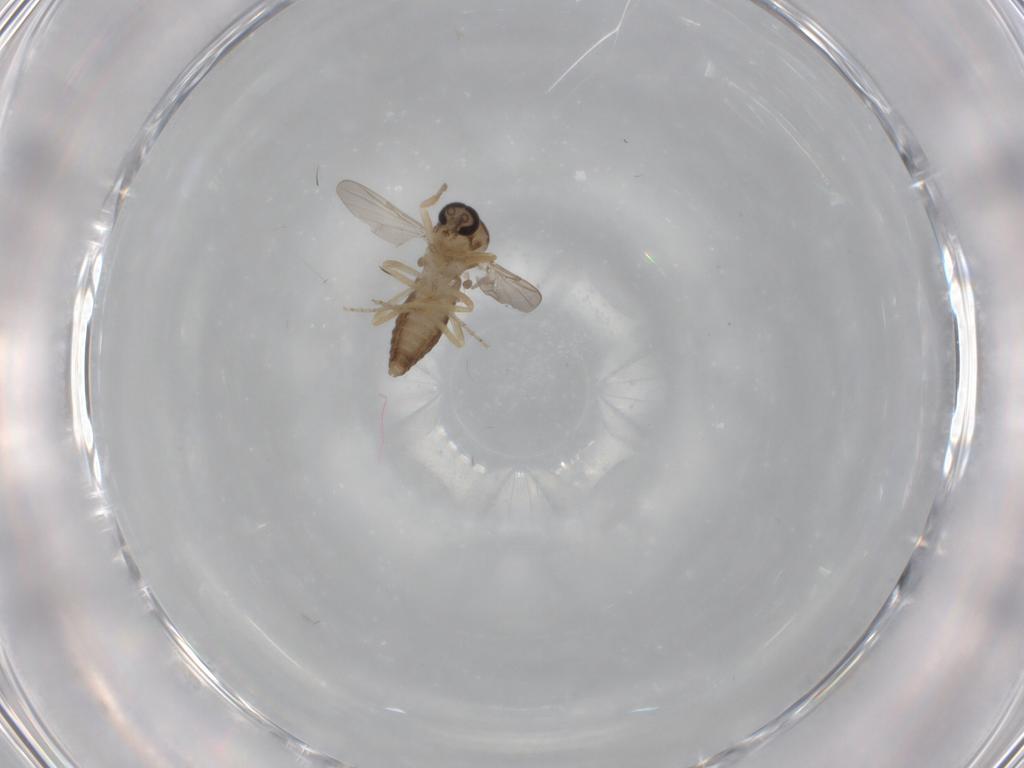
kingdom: Animalia
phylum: Arthropoda
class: Insecta
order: Diptera
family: Ceratopogonidae
